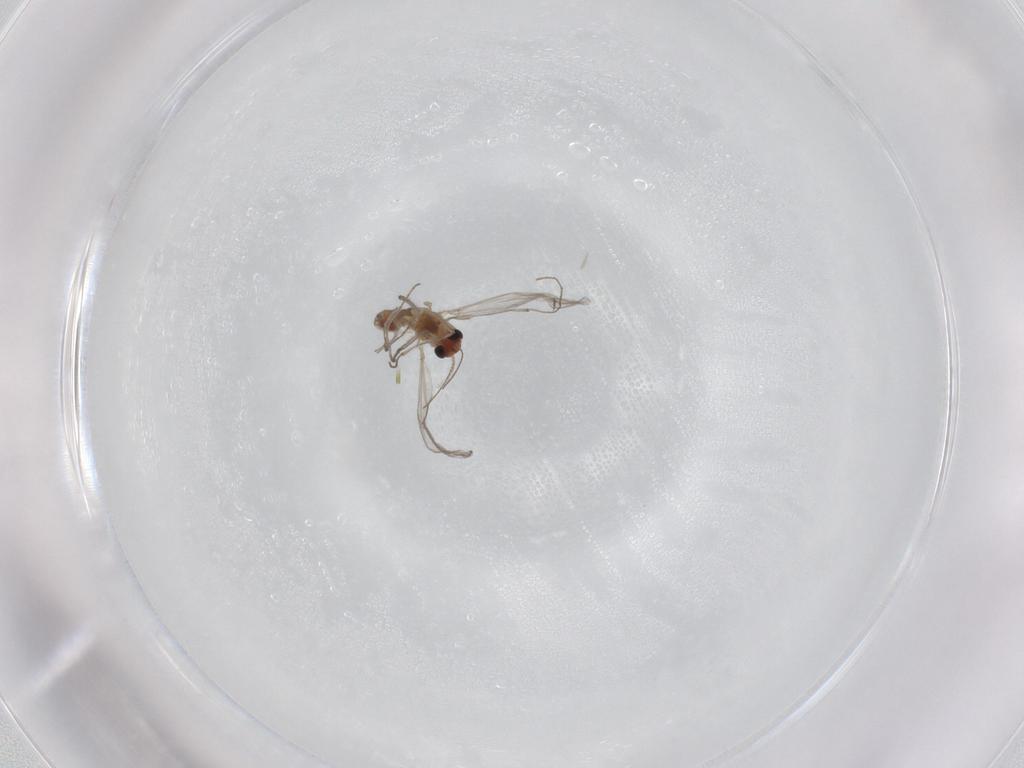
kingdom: Animalia
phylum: Arthropoda
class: Insecta
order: Diptera
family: Chironomidae
